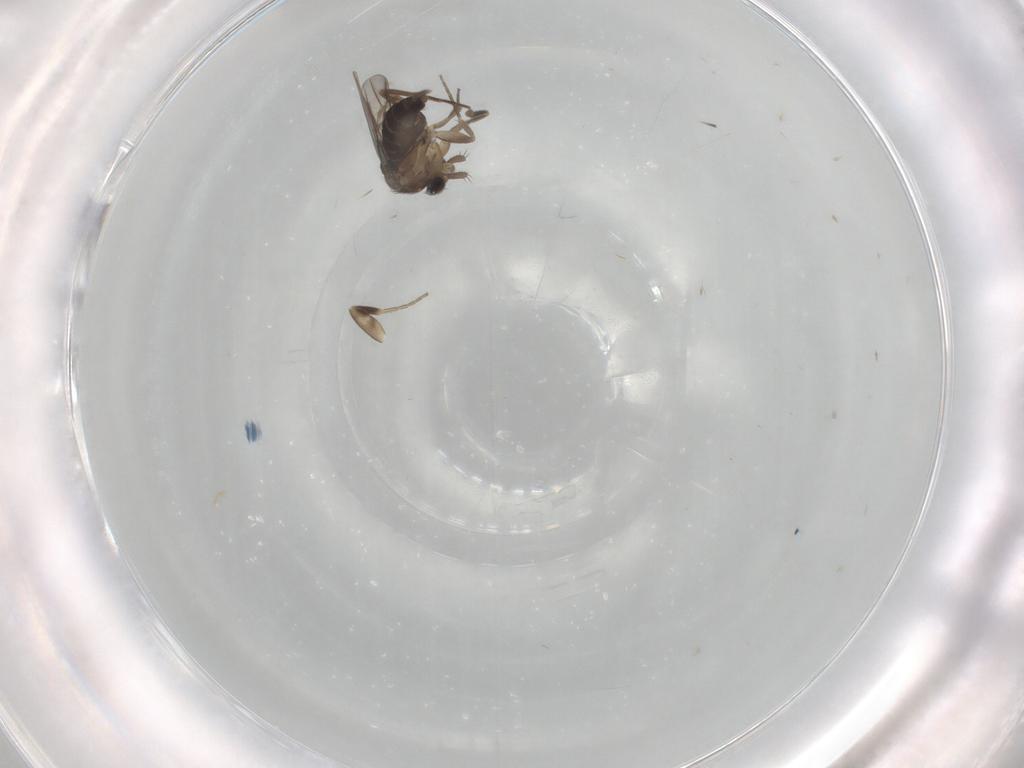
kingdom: Animalia
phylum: Arthropoda
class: Insecta
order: Diptera
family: Phoridae
